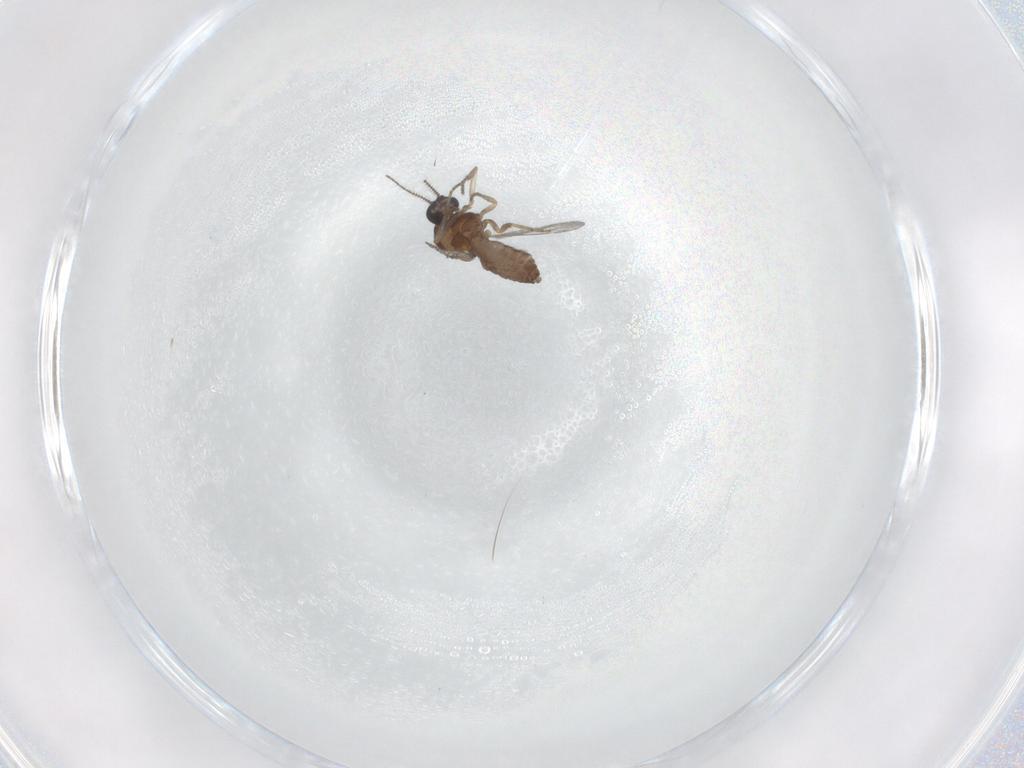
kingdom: Animalia
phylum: Arthropoda
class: Insecta
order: Diptera
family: Ceratopogonidae
